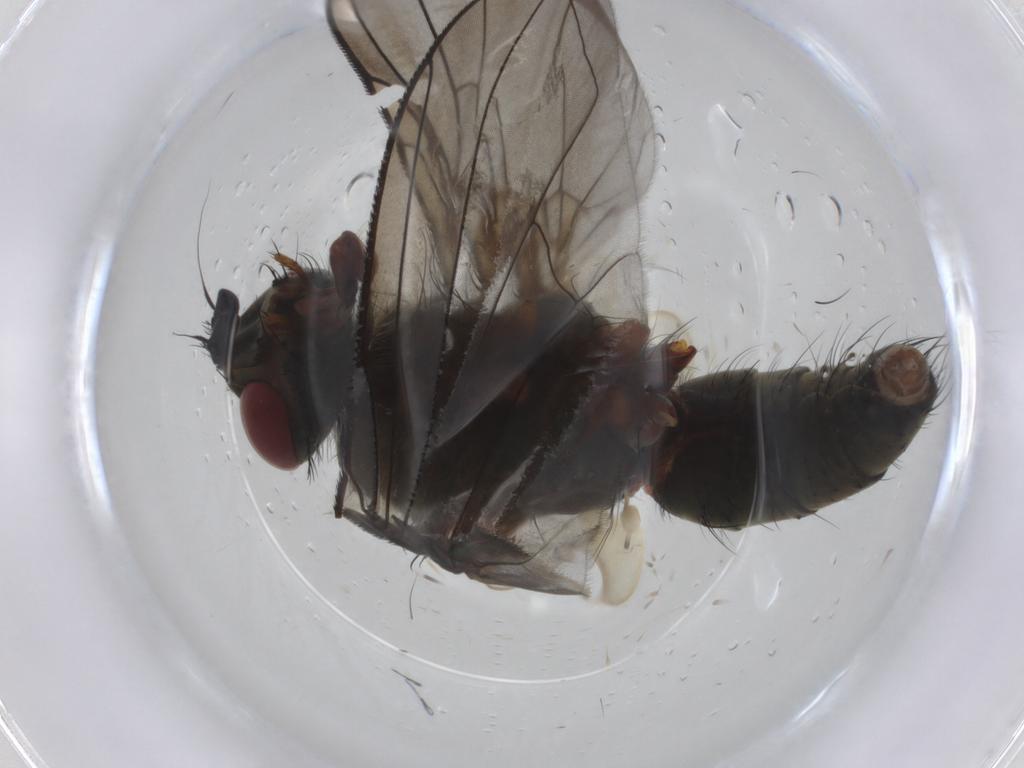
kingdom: Animalia
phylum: Arthropoda
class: Insecta
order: Diptera
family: Tachinidae
